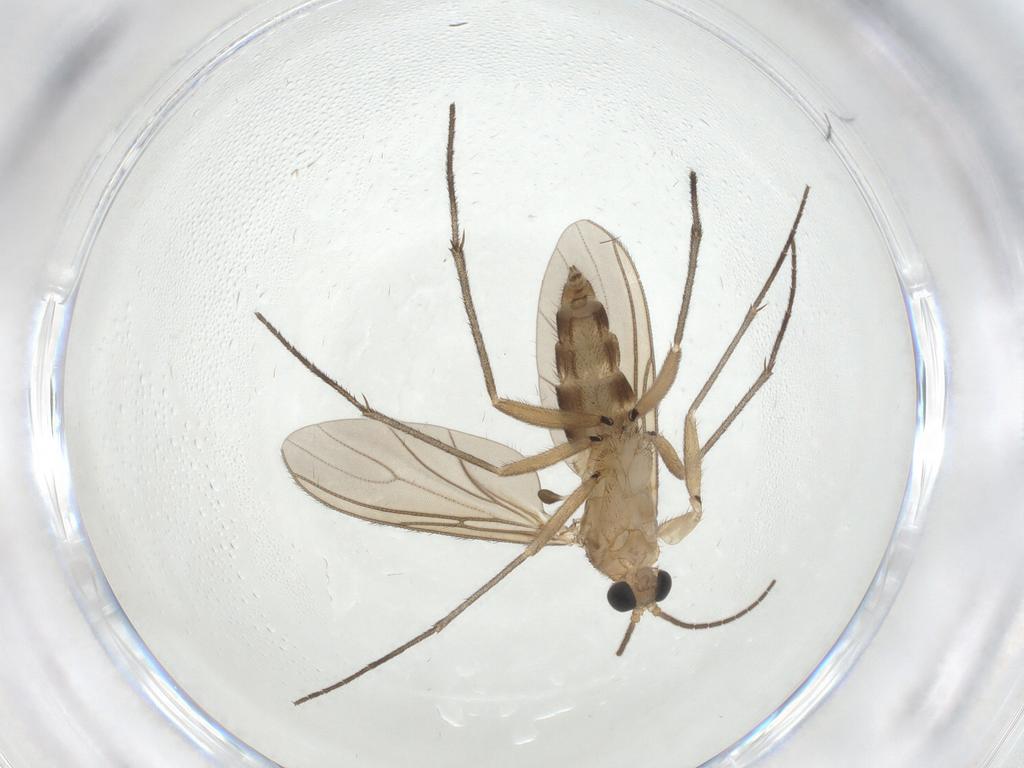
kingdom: Animalia
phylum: Arthropoda
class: Insecta
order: Diptera
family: Sciaridae
